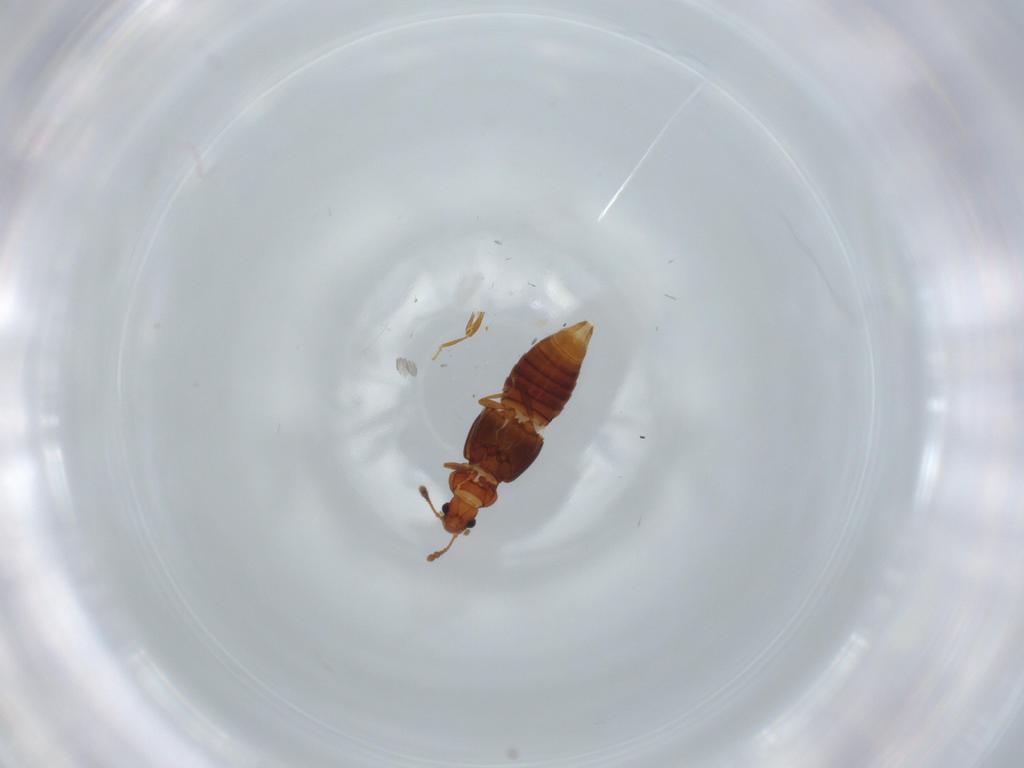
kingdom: Animalia
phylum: Arthropoda
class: Insecta
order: Coleoptera
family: Staphylinidae
